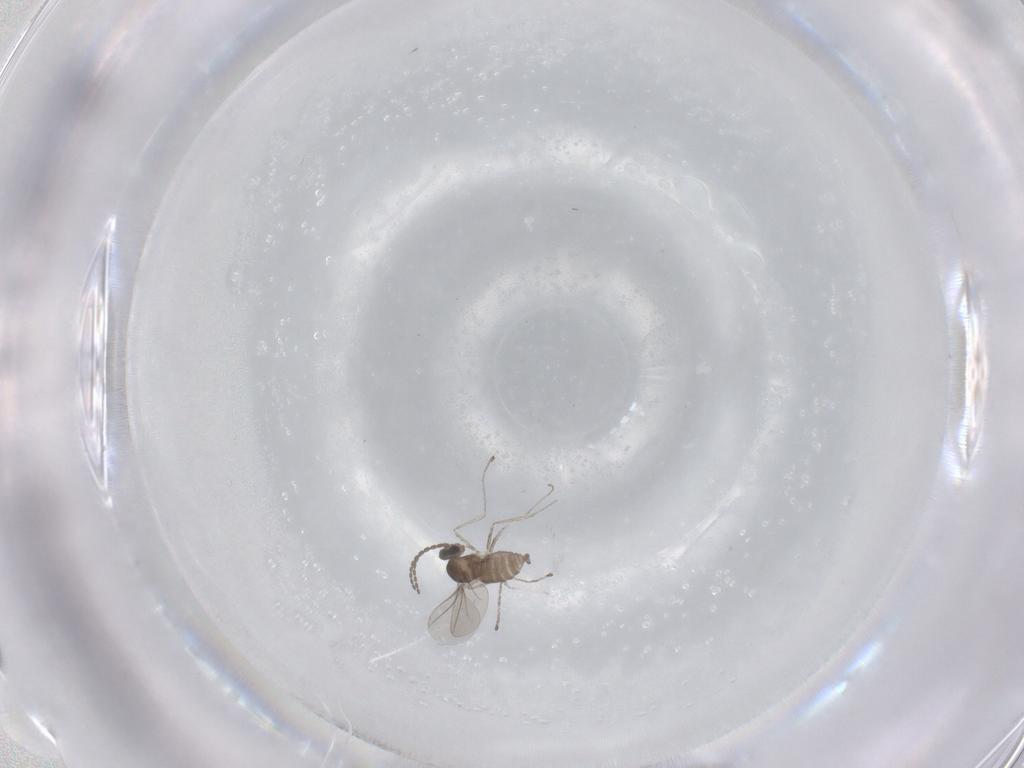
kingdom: Animalia
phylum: Arthropoda
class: Insecta
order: Diptera
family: Cecidomyiidae
